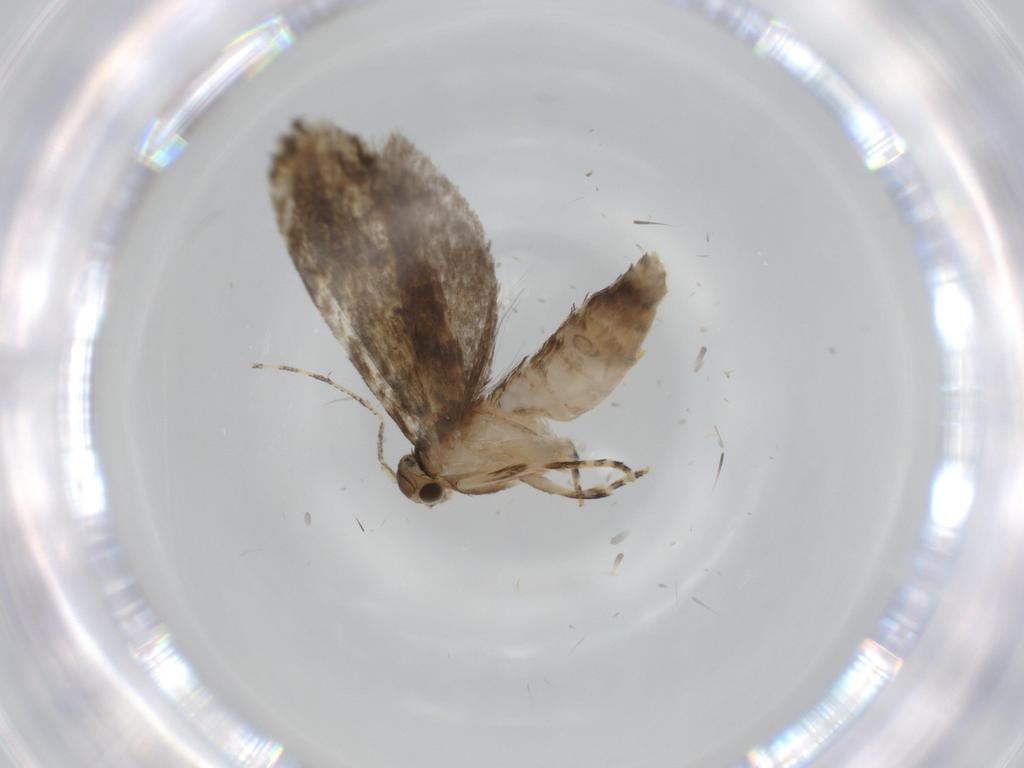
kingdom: Animalia
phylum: Arthropoda
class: Insecta
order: Lepidoptera
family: Tineidae
